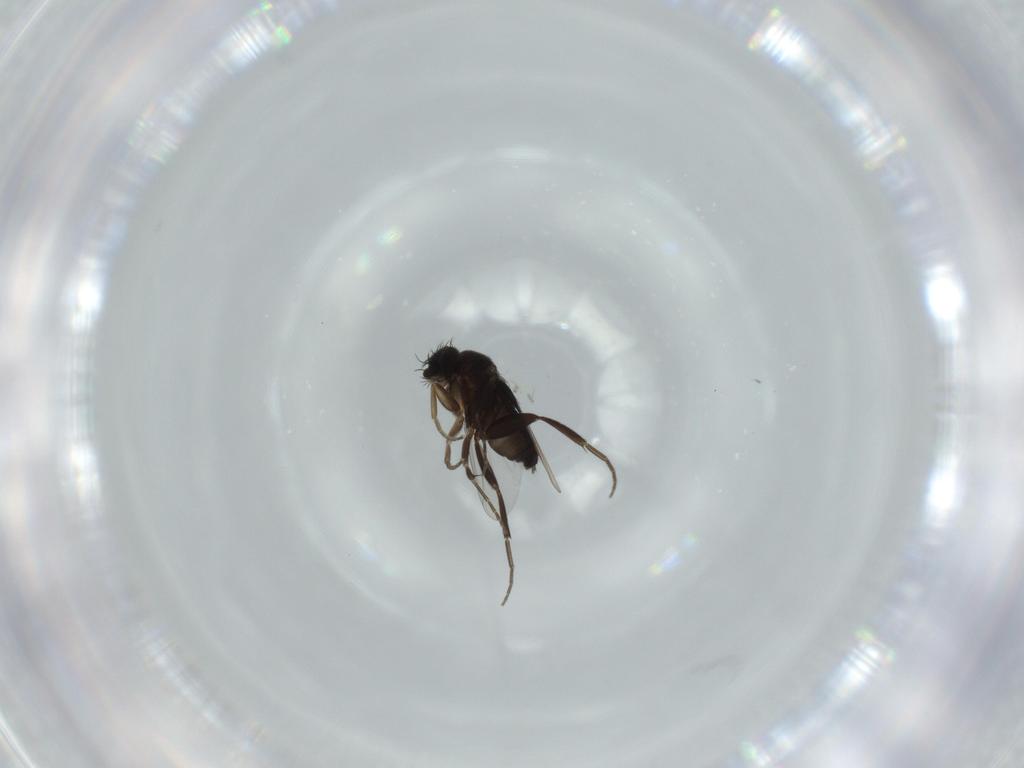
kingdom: Animalia
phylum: Arthropoda
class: Insecta
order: Diptera
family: Phoridae
